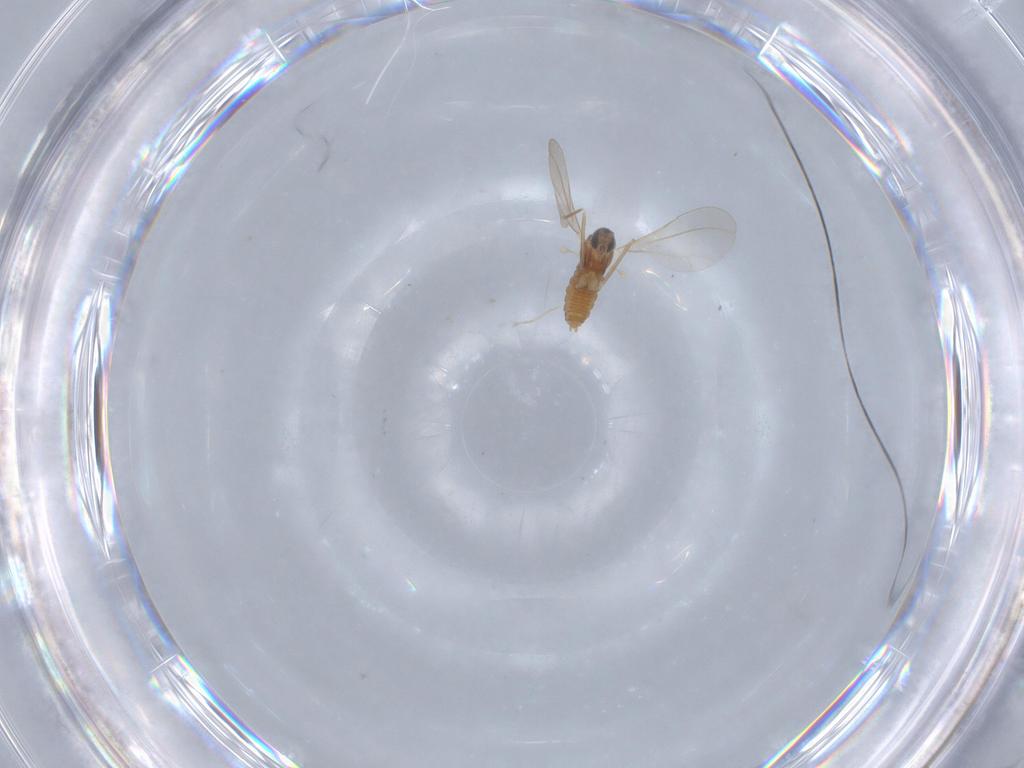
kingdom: Animalia
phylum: Arthropoda
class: Insecta
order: Diptera
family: Cecidomyiidae
